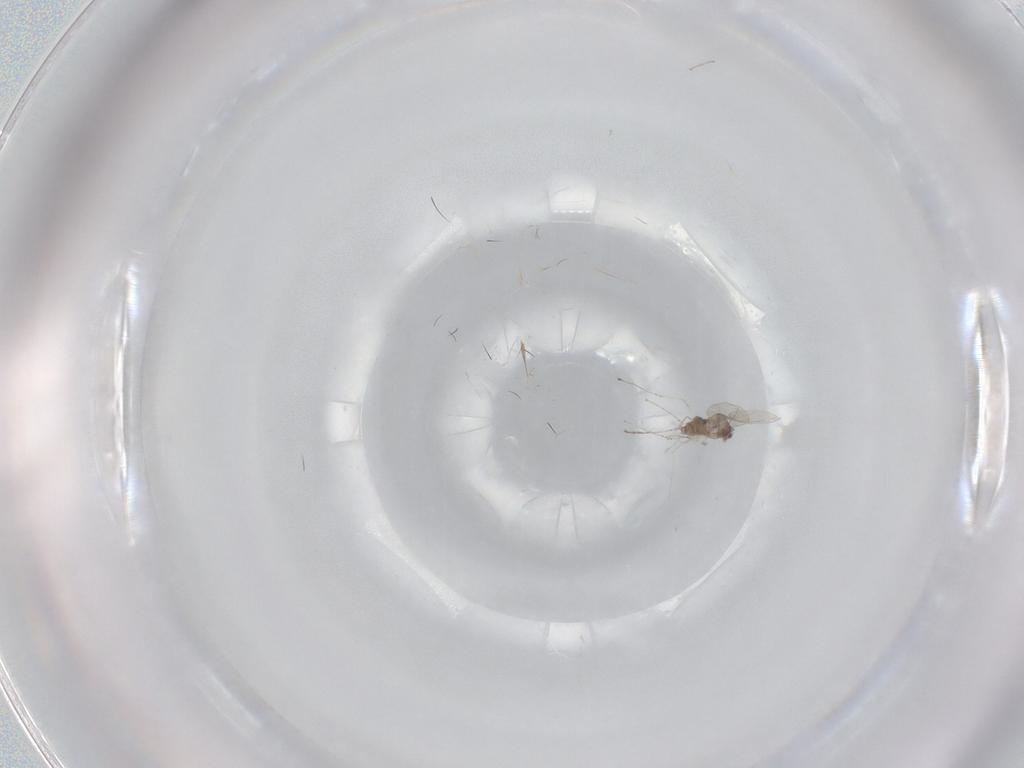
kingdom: Animalia
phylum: Arthropoda
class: Insecta
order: Diptera
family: Cecidomyiidae
